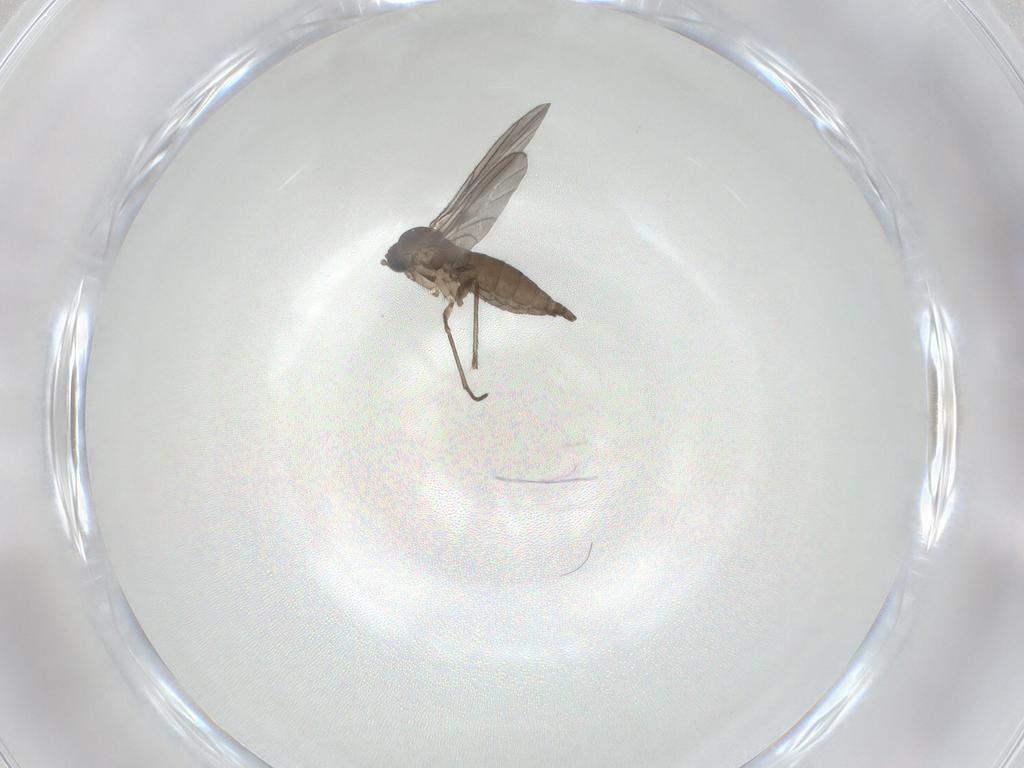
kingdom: Animalia
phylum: Arthropoda
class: Insecta
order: Diptera
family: Sciaridae
